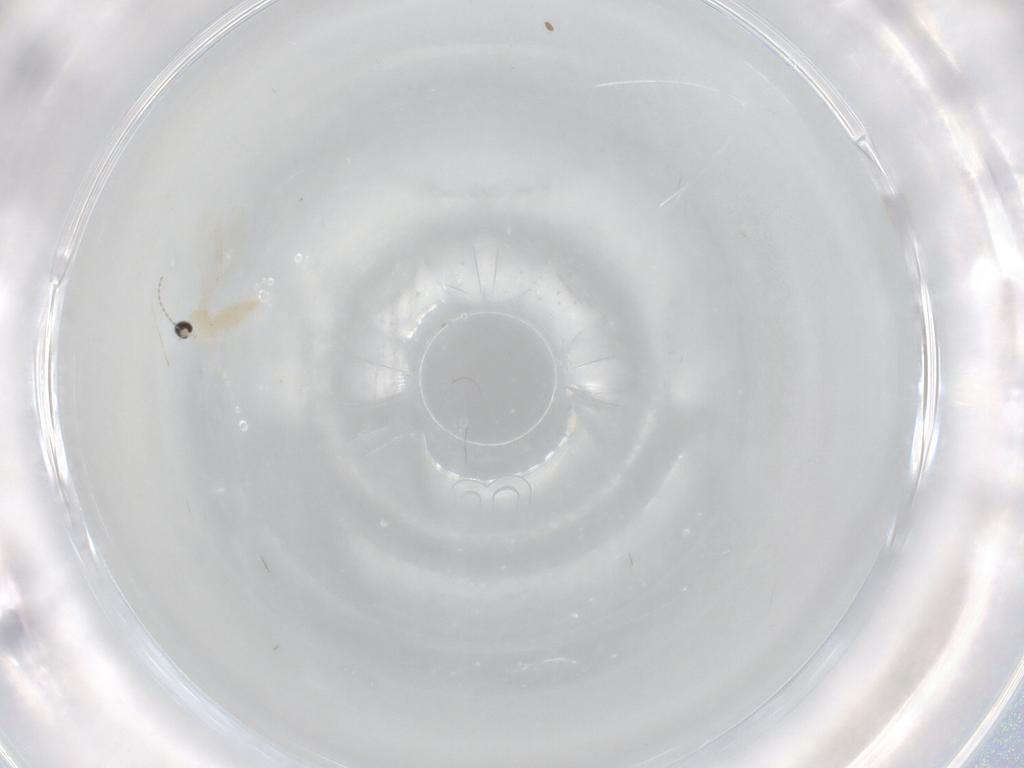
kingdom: Animalia
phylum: Arthropoda
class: Insecta
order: Diptera
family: Cecidomyiidae
